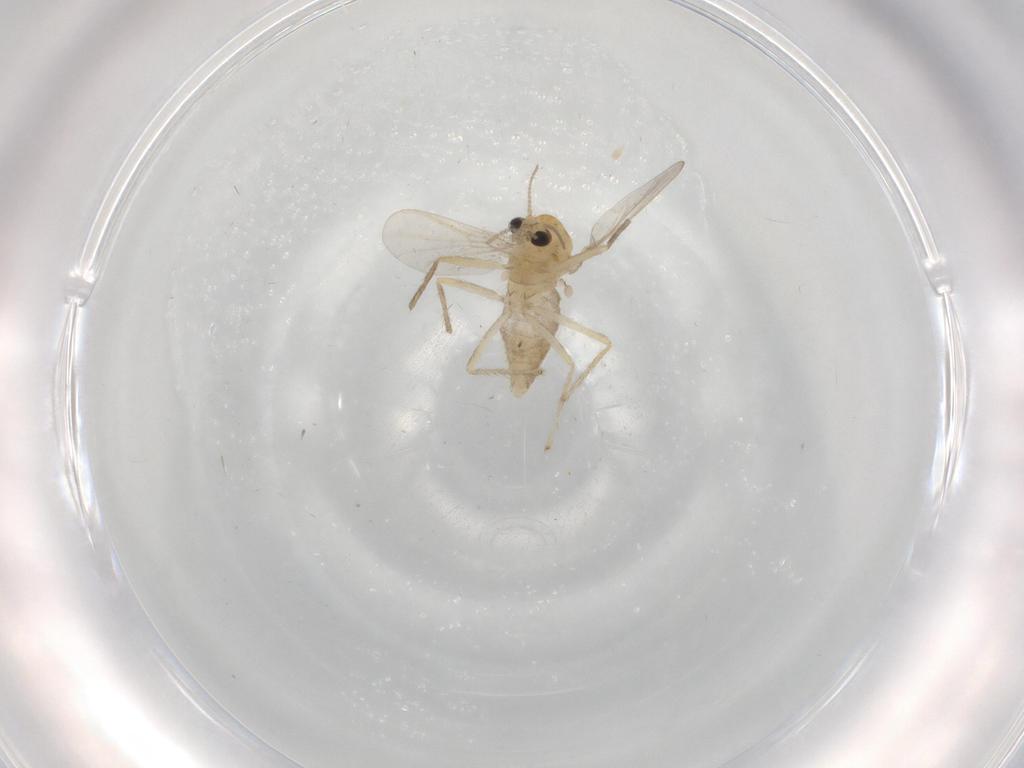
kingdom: Animalia
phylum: Arthropoda
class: Insecta
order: Diptera
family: Chironomidae
